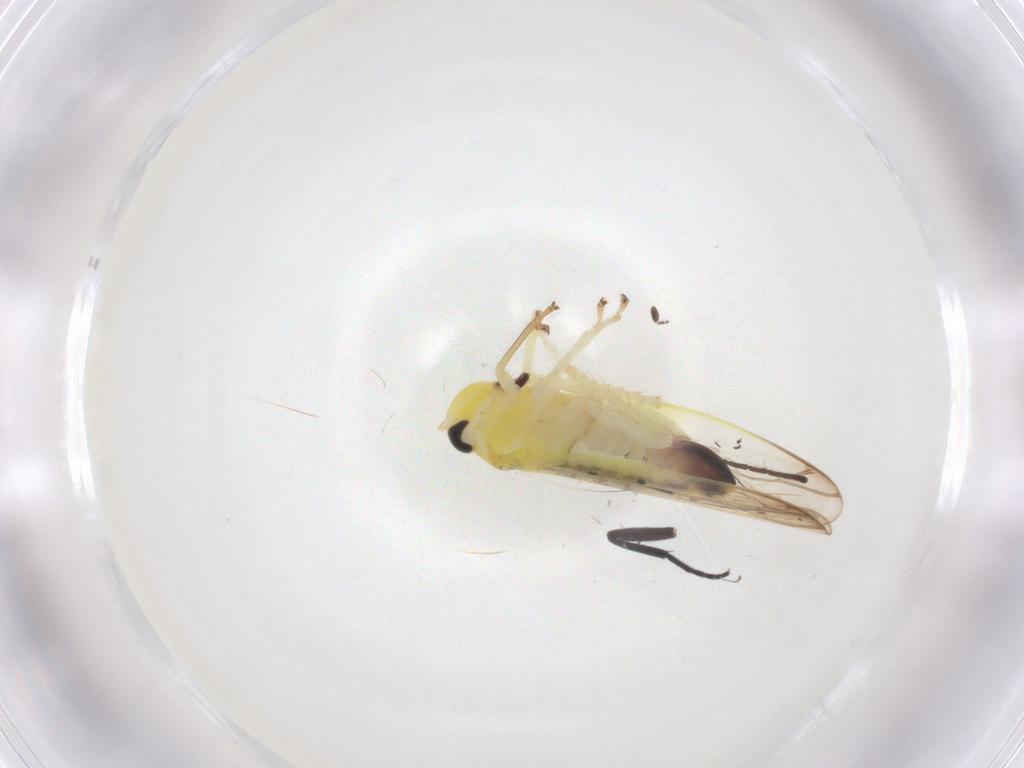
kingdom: Animalia
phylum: Arthropoda
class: Insecta
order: Hemiptera
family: Cicadellidae
